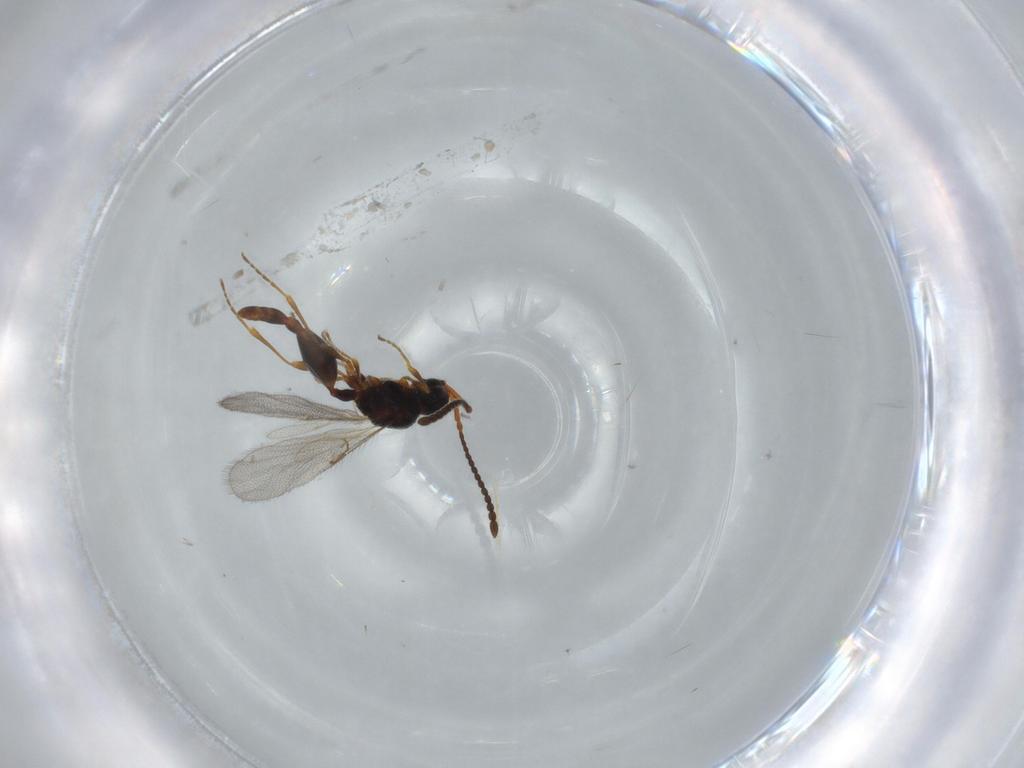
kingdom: Animalia
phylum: Arthropoda
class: Insecta
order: Hymenoptera
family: Diapriidae
